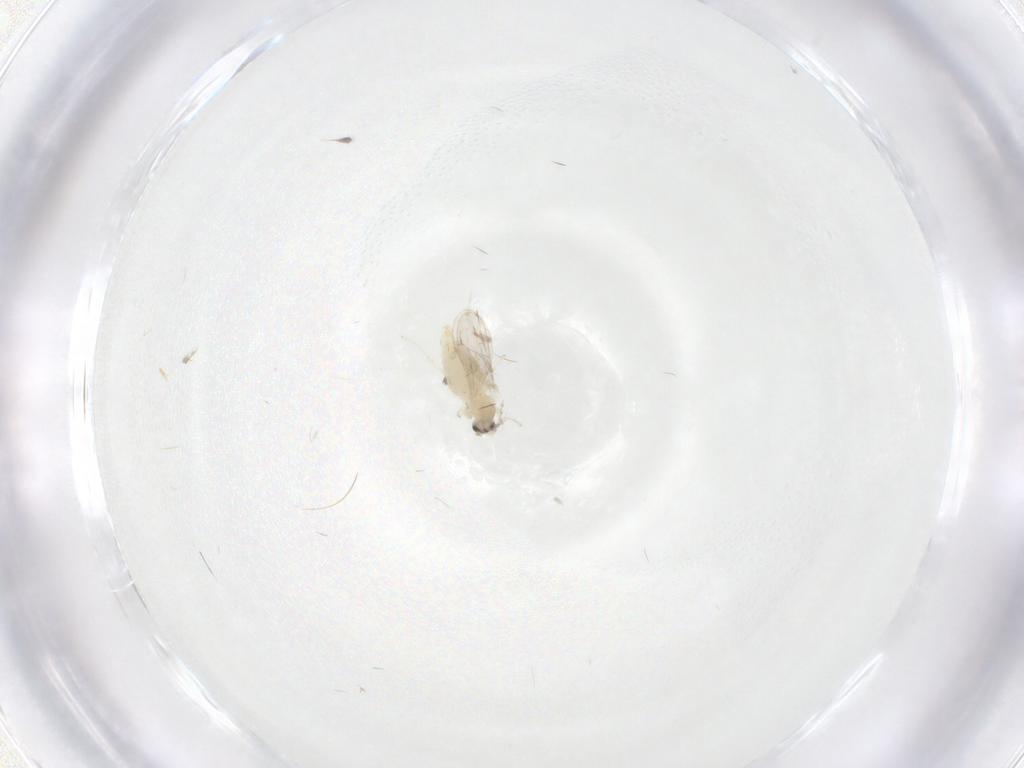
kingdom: Animalia
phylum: Arthropoda
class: Insecta
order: Diptera
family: Cecidomyiidae
